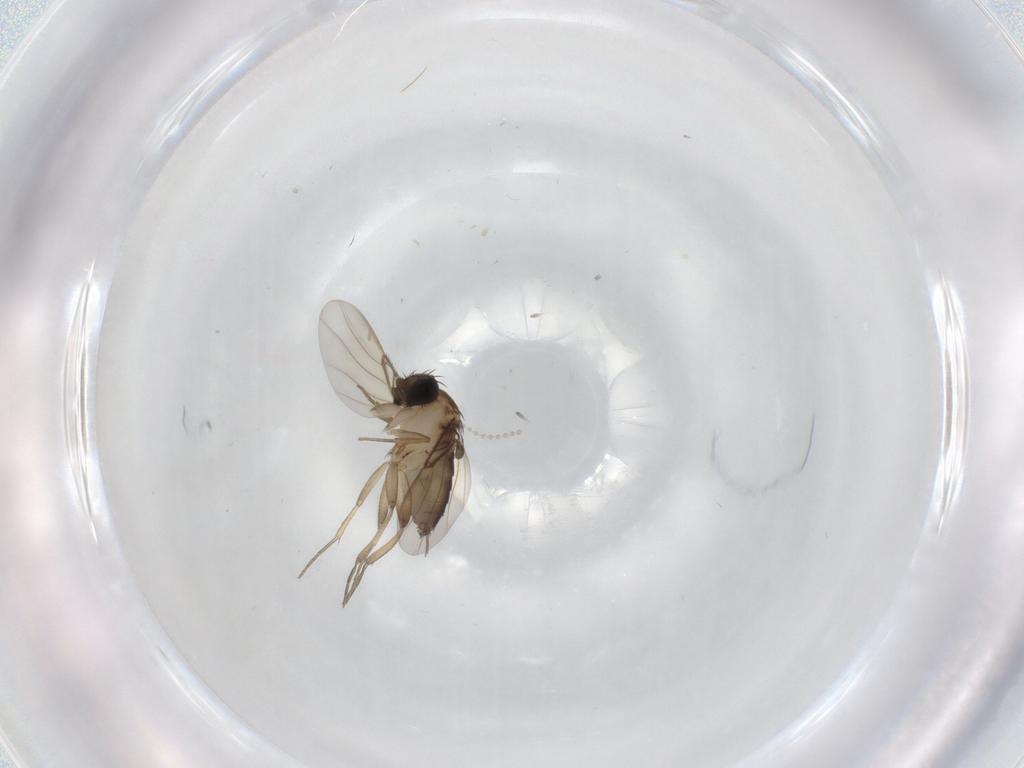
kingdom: Animalia
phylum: Arthropoda
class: Insecta
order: Diptera
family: Cecidomyiidae
